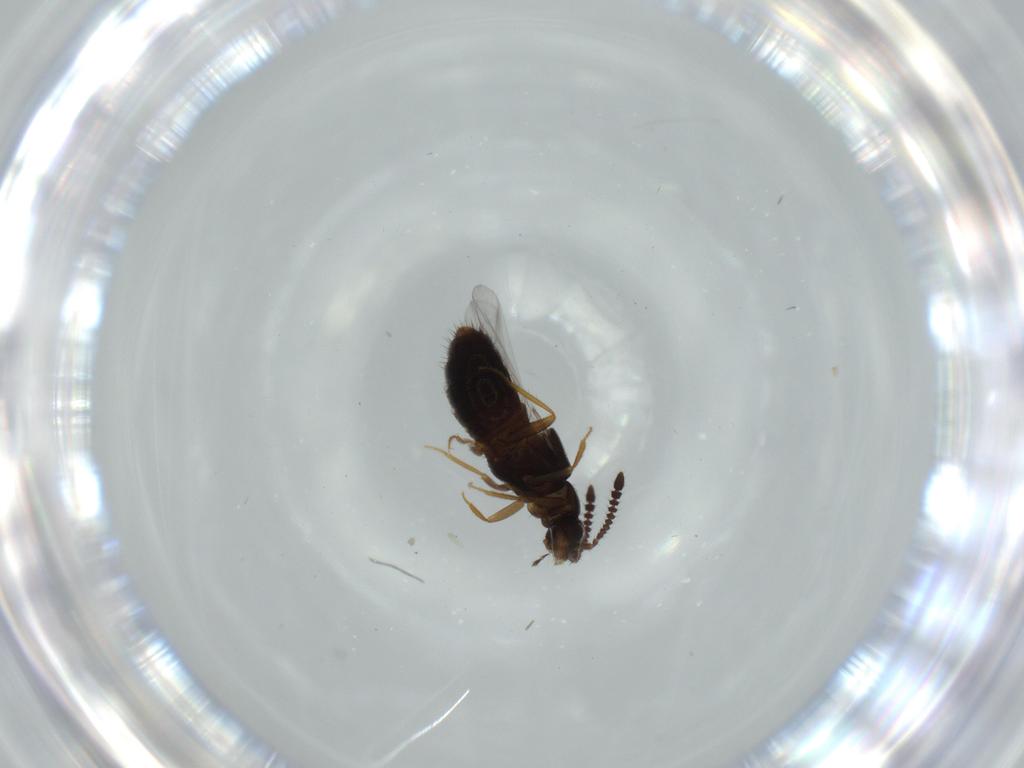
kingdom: Animalia
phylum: Arthropoda
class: Insecta
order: Coleoptera
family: Staphylinidae
